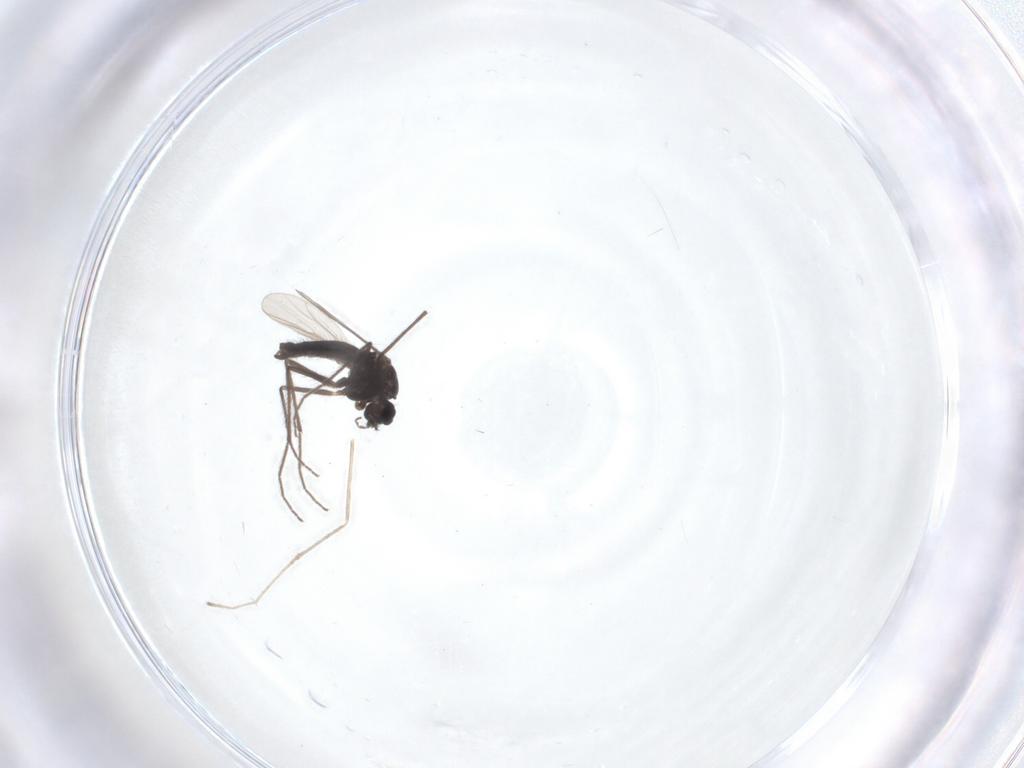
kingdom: Animalia
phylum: Arthropoda
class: Insecta
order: Diptera
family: Chironomidae
